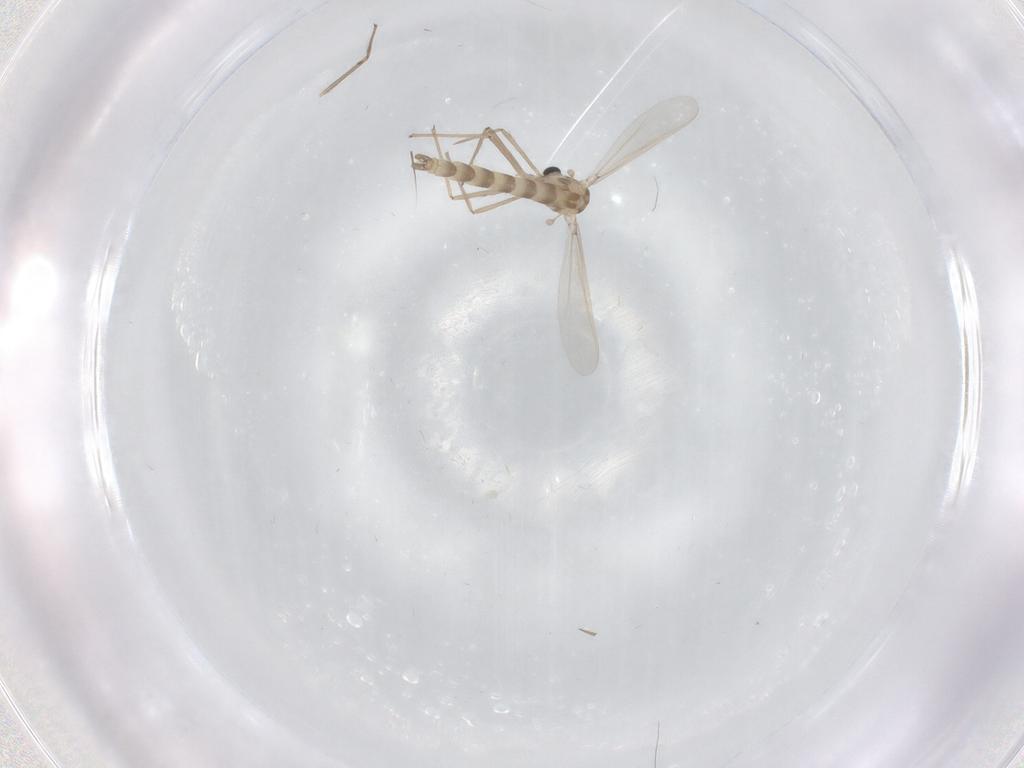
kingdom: Animalia
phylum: Arthropoda
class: Insecta
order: Diptera
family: Chironomidae
